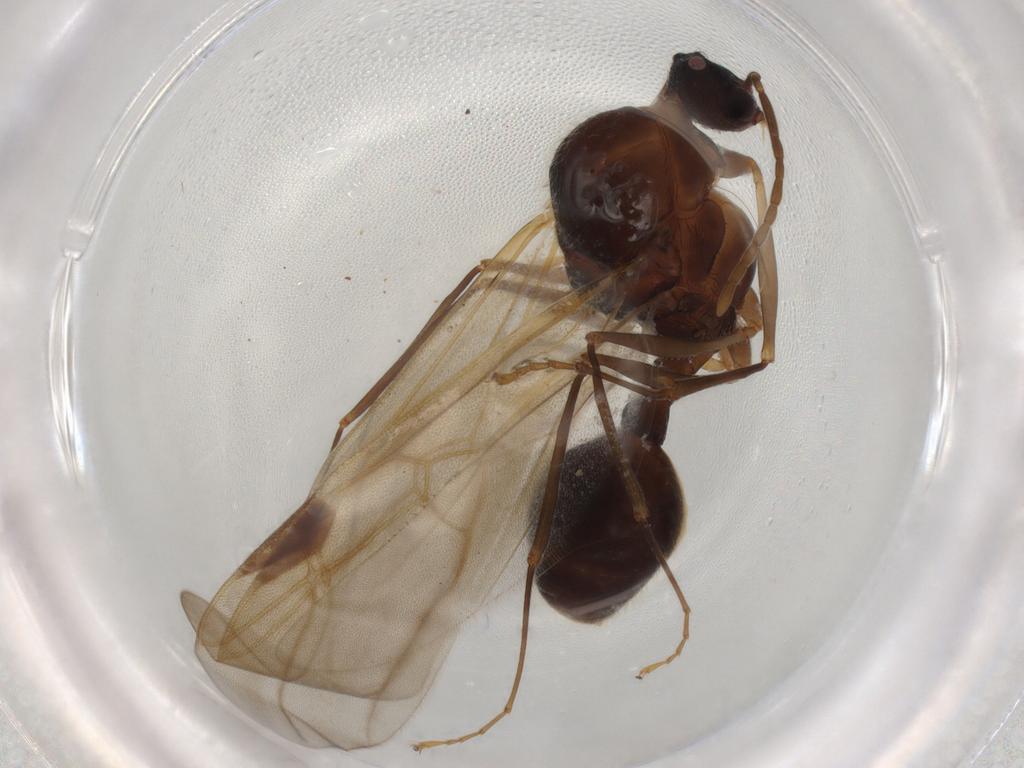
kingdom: Animalia
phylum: Arthropoda
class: Insecta
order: Hymenoptera
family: Formicidae
